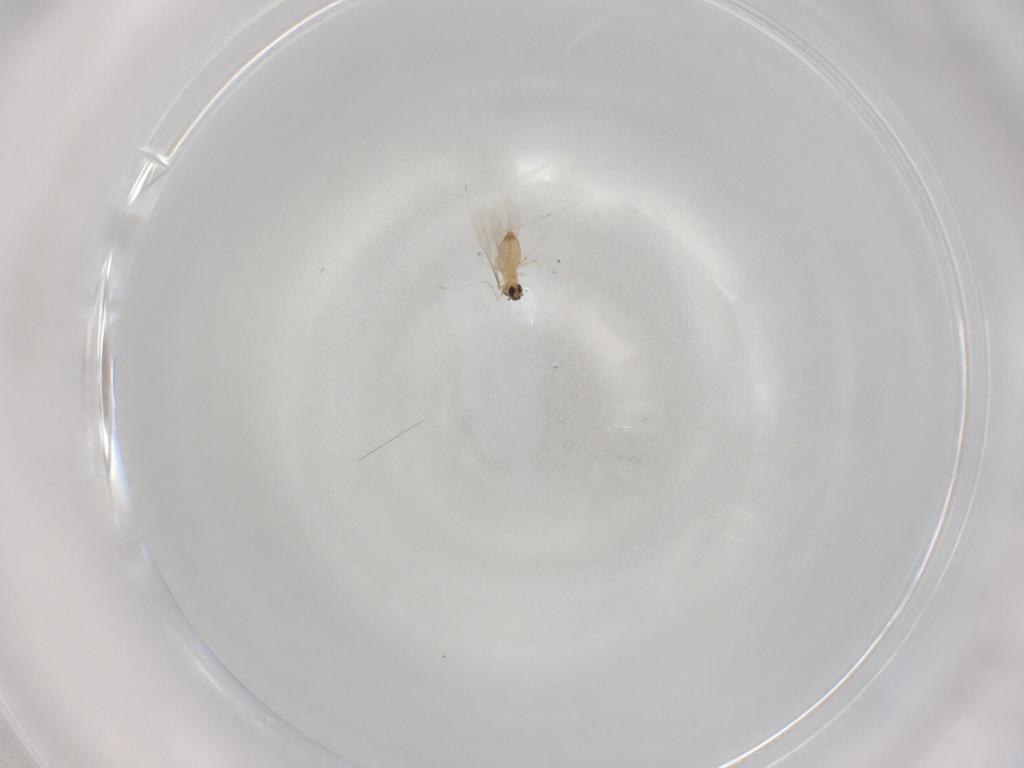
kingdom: Animalia
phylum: Arthropoda
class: Insecta
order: Diptera
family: Cecidomyiidae
